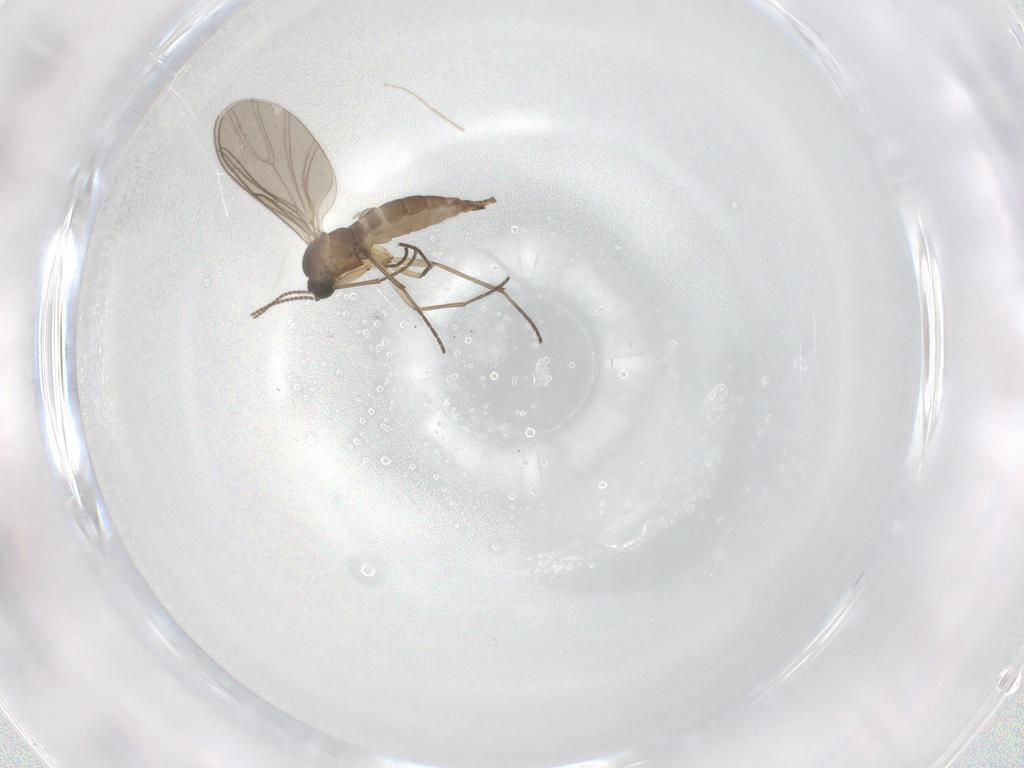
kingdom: Animalia
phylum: Arthropoda
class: Insecta
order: Diptera
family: Sciaridae
